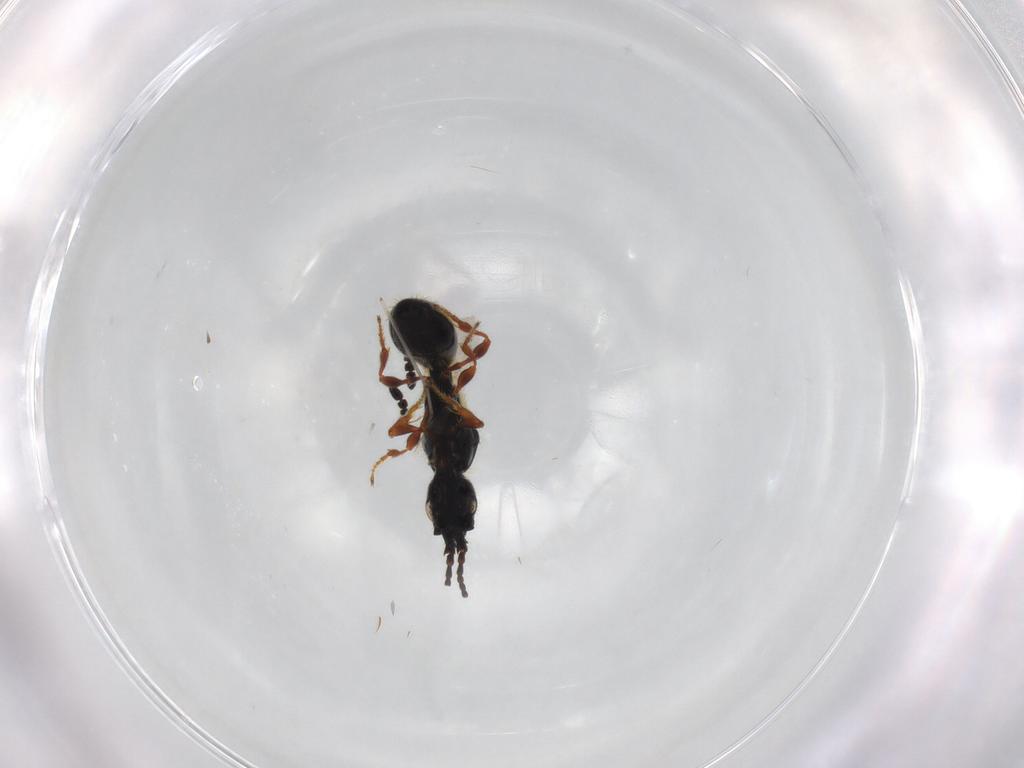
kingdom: Animalia
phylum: Arthropoda
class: Insecta
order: Hymenoptera
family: Diapriidae
